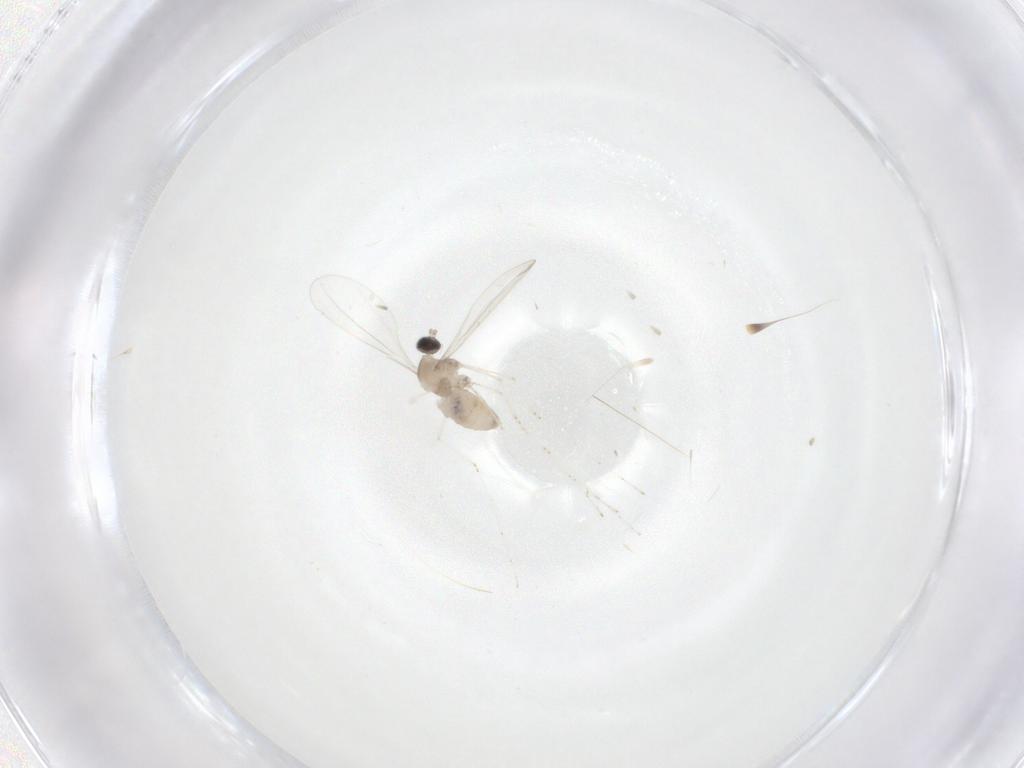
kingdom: Animalia
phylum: Arthropoda
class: Insecta
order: Diptera
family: Cecidomyiidae
